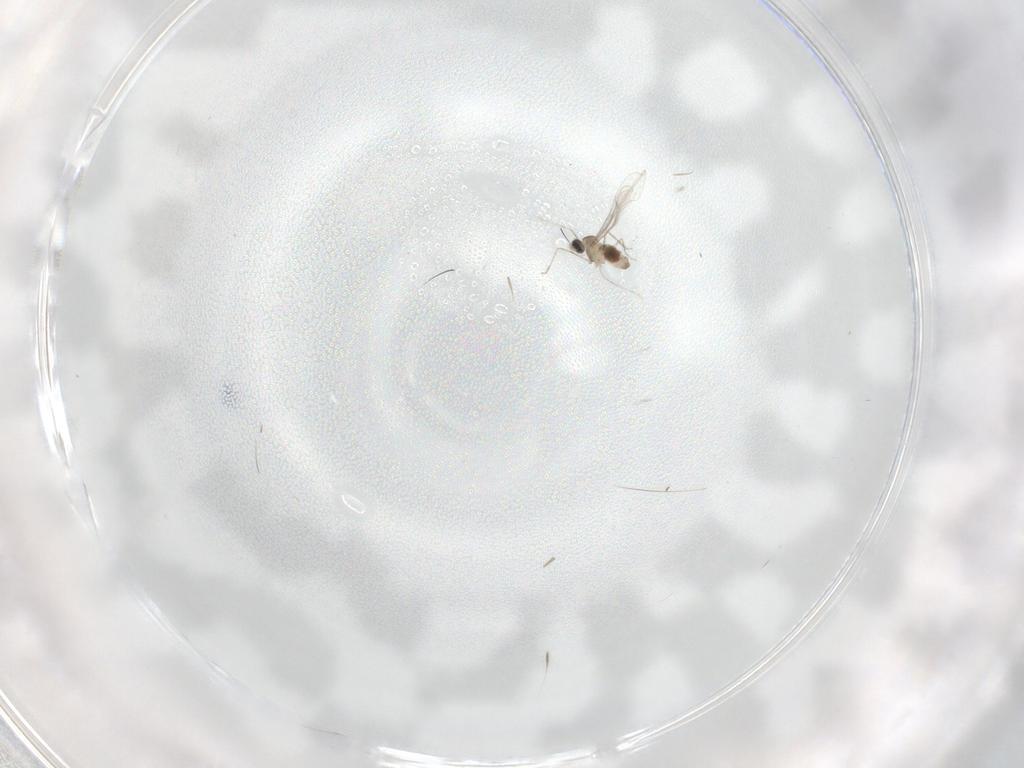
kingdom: Animalia
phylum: Arthropoda
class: Insecta
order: Diptera
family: Cecidomyiidae
